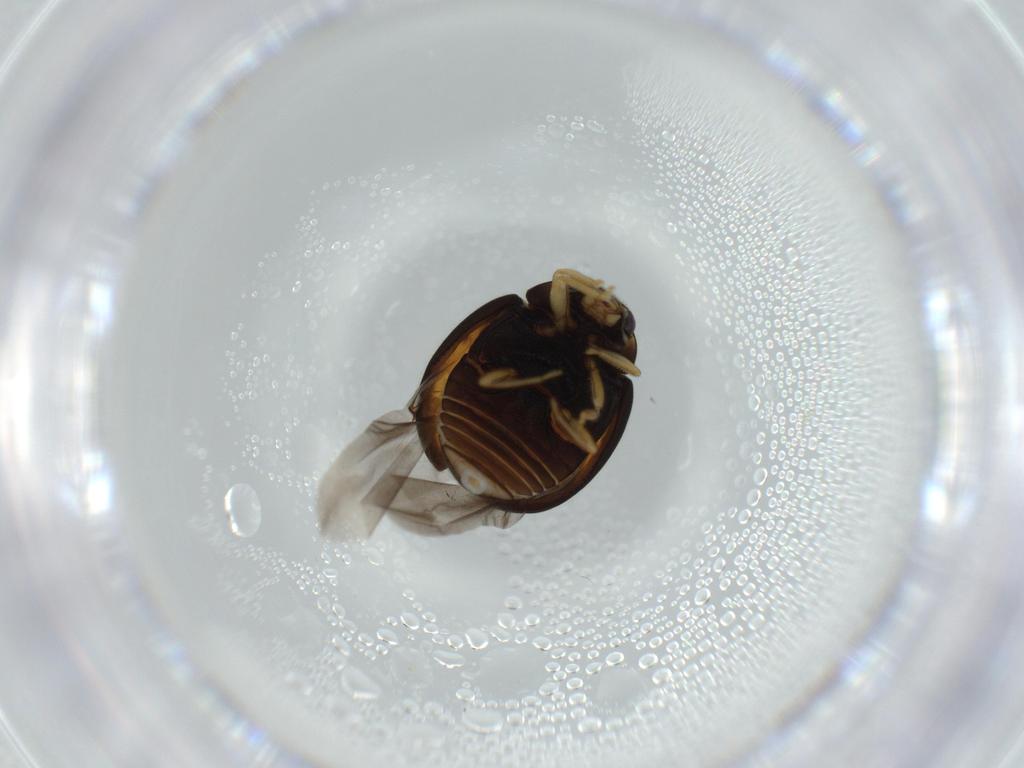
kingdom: Animalia
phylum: Arthropoda
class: Insecta
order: Coleoptera
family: Coccinellidae
